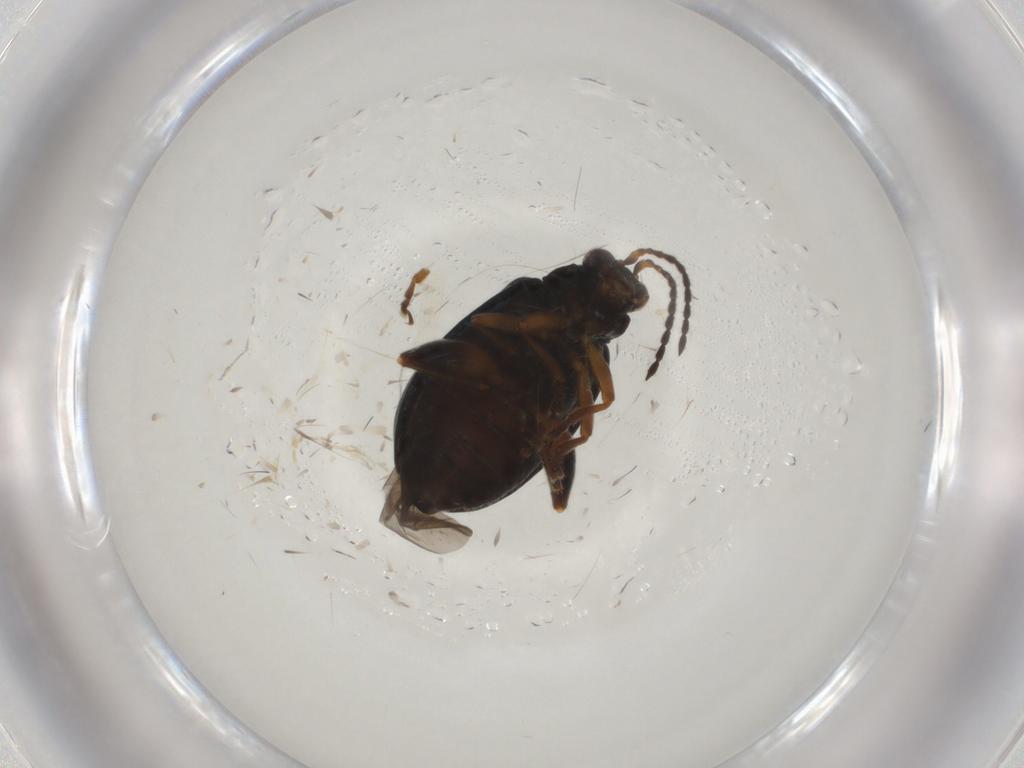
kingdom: Animalia
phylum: Arthropoda
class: Insecta
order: Coleoptera
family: Chrysomelidae
